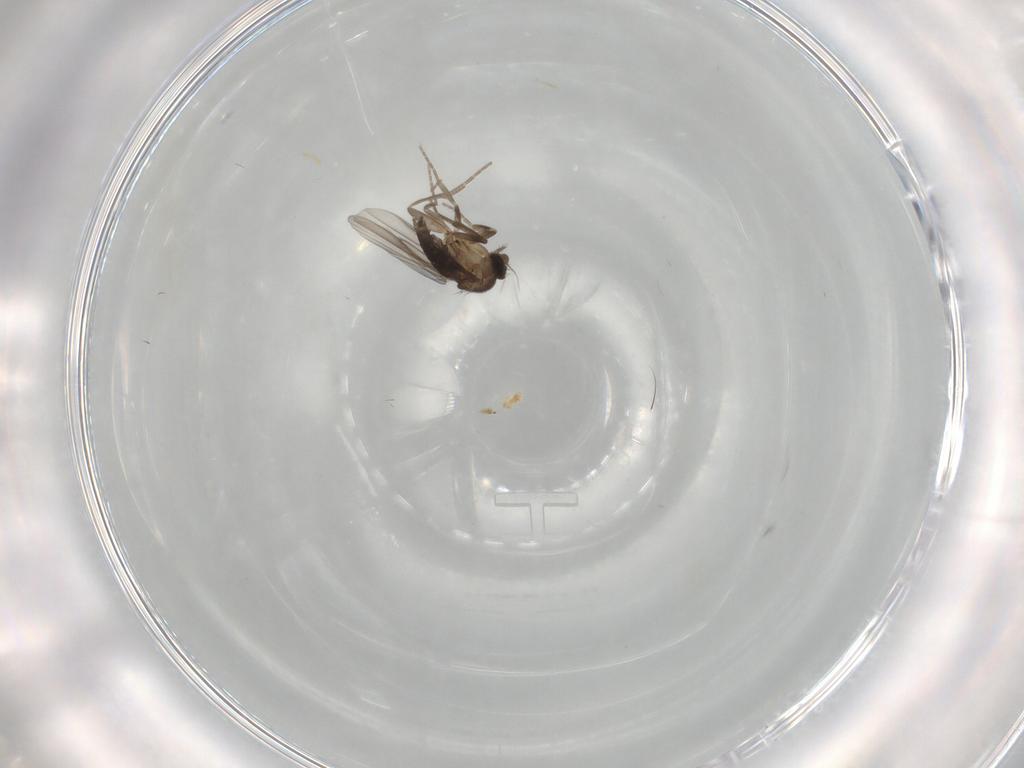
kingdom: Animalia
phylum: Arthropoda
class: Insecta
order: Diptera
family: Phoridae
